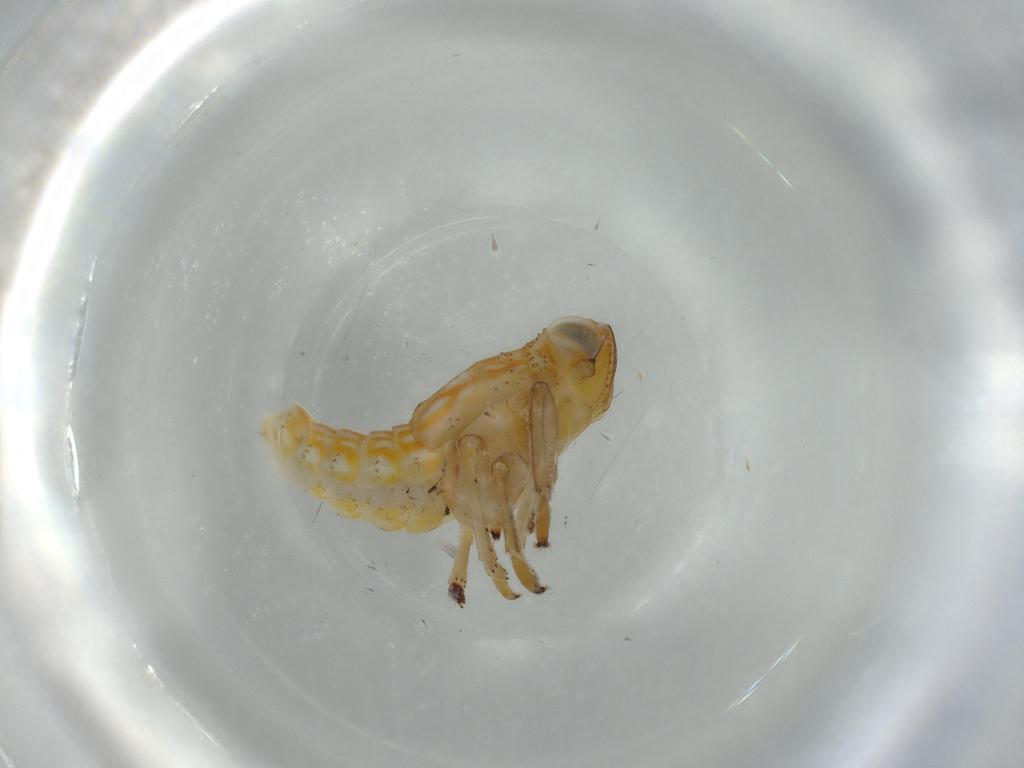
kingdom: Animalia
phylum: Arthropoda
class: Insecta
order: Hemiptera
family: Issidae
